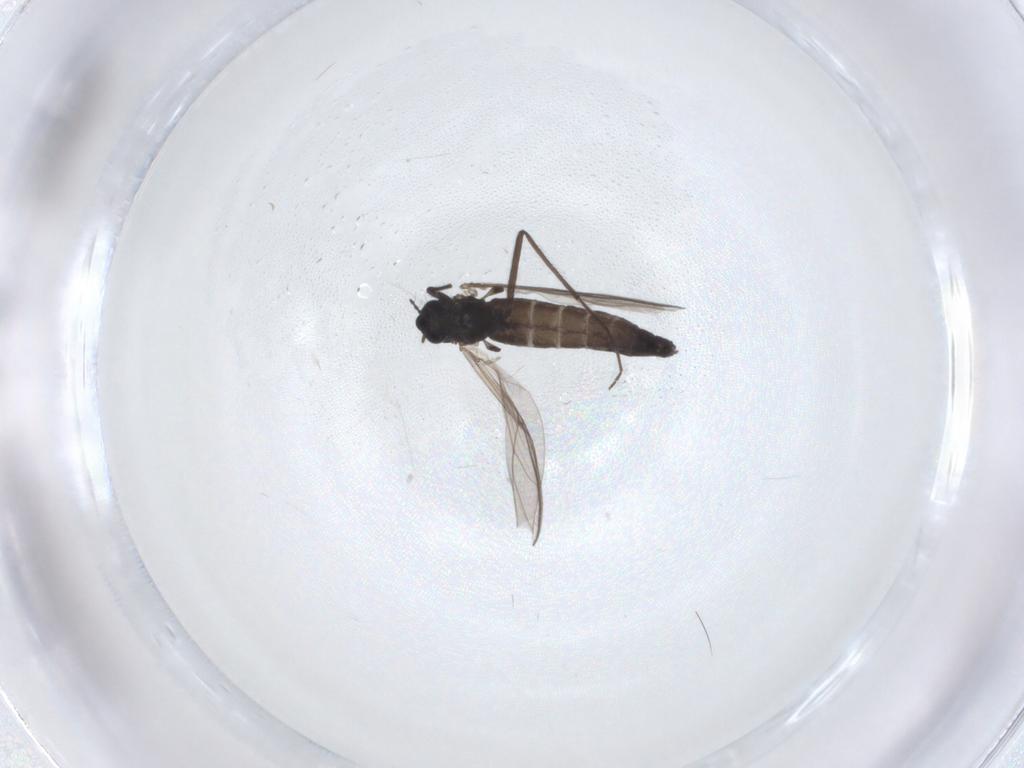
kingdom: Animalia
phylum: Arthropoda
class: Insecta
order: Diptera
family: Chironomidae
